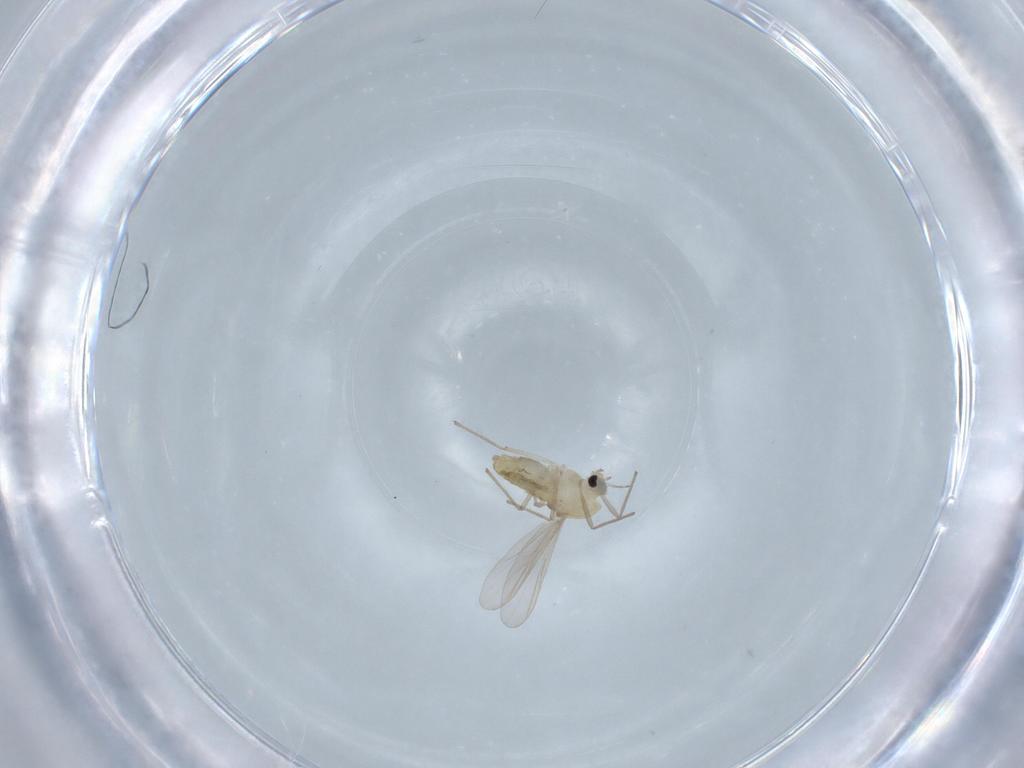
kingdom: Animalia
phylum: Arthropoda
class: Insecta
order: Diptera
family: Chironomidae
